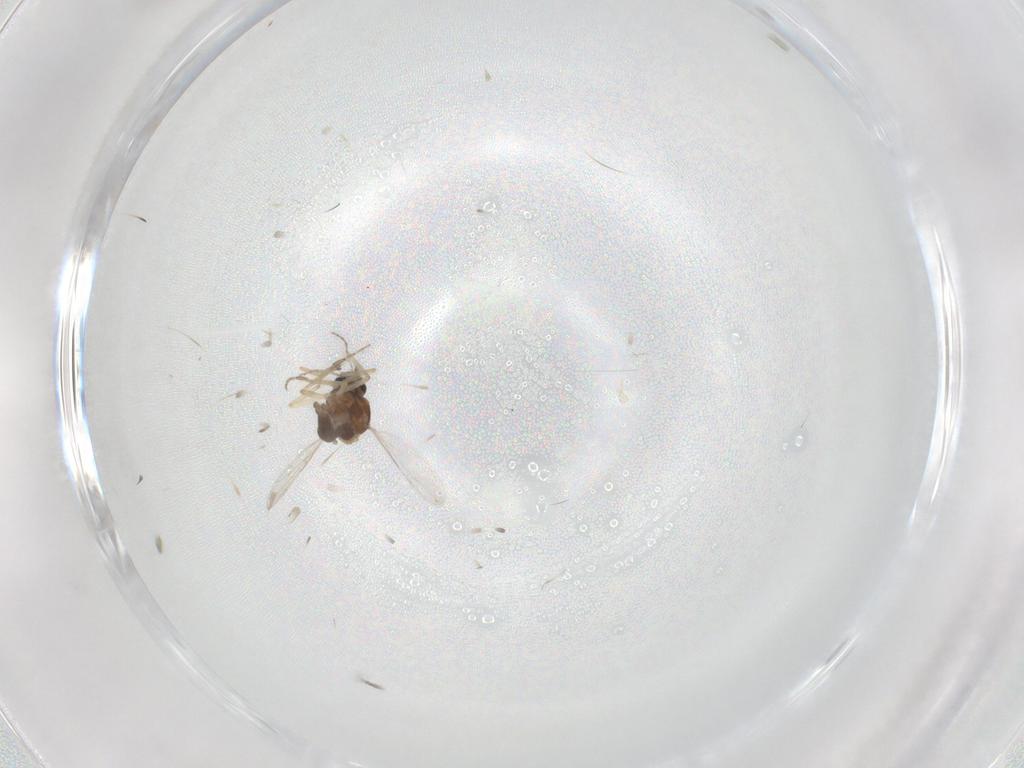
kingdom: Animalia
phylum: Arthropoda
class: Insecta
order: Diptera
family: Ceratopogonidae
